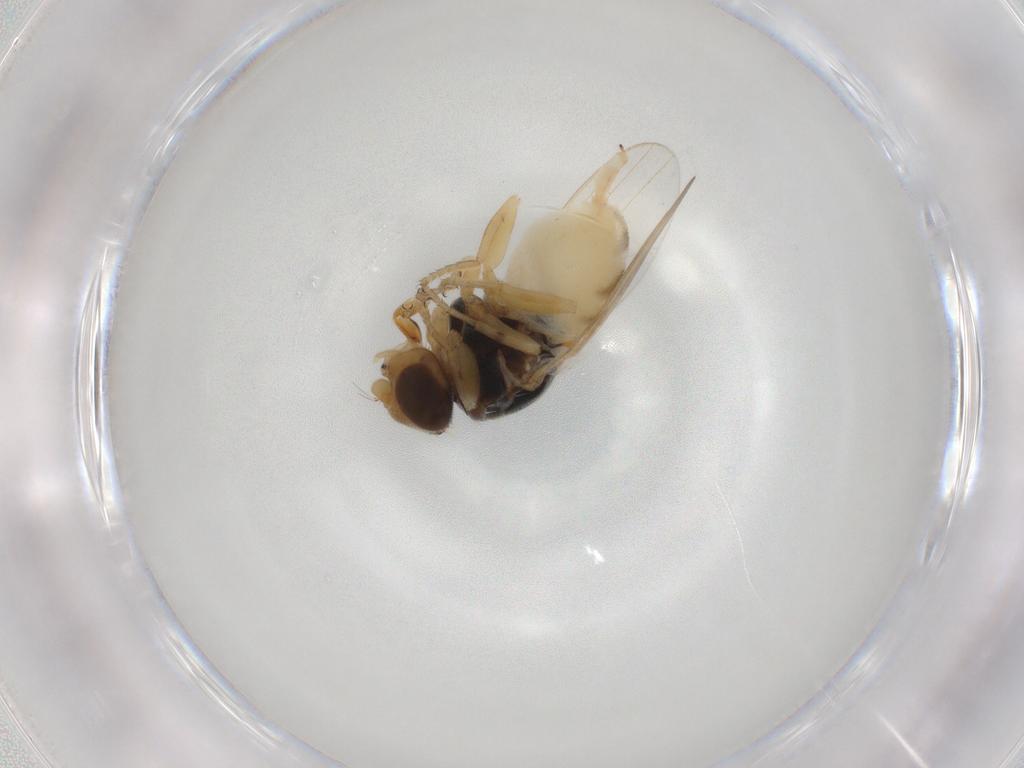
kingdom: Animalia
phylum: Arthropoda
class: Insecta
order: Diptera
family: Chloropidae
